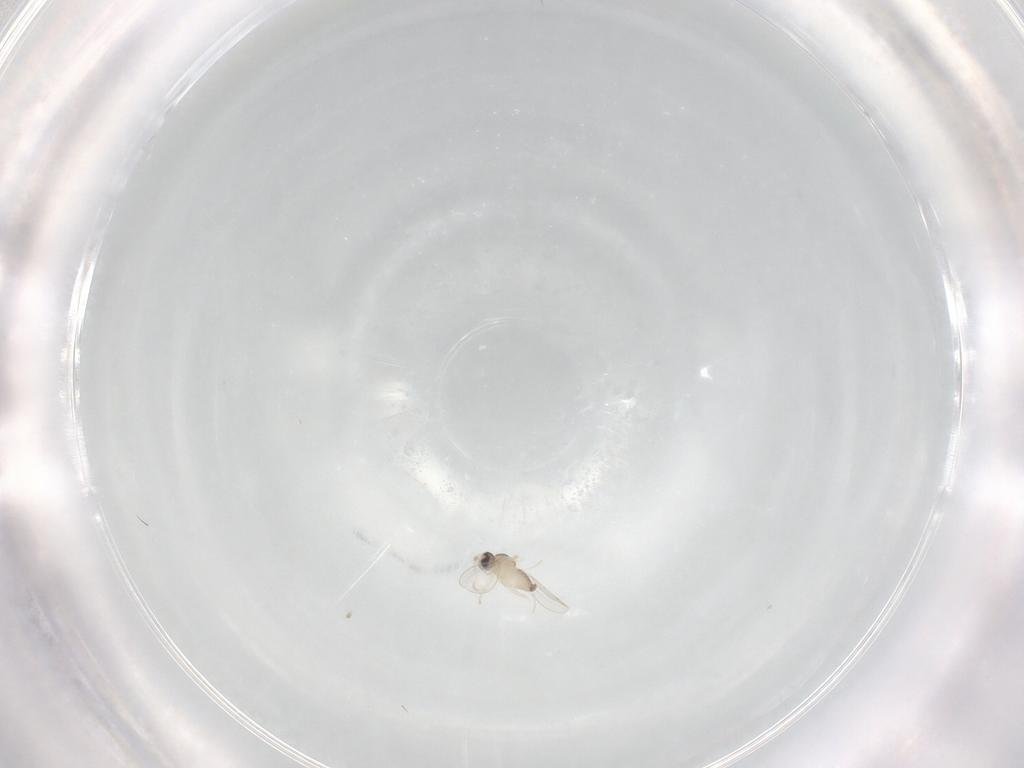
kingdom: Animalia
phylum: Arthropoda
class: Insecta
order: Diptera
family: Cecidomyiidae
